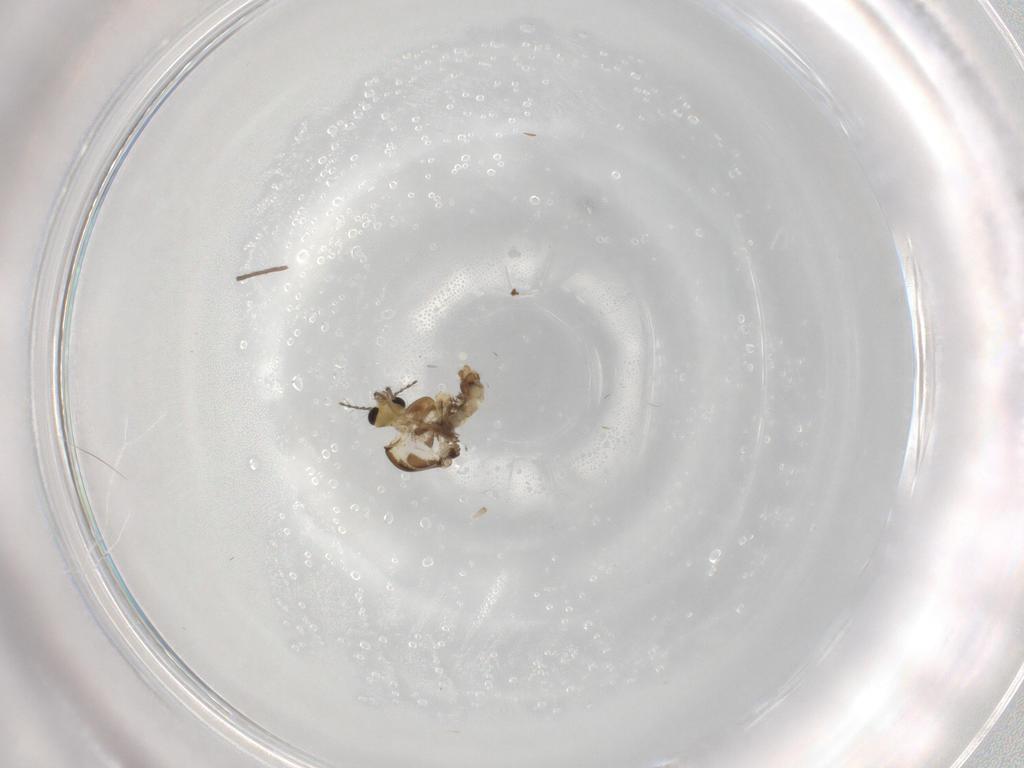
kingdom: Animalia
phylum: Arthropoda
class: Insecta
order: Diptera
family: Chironomidae
